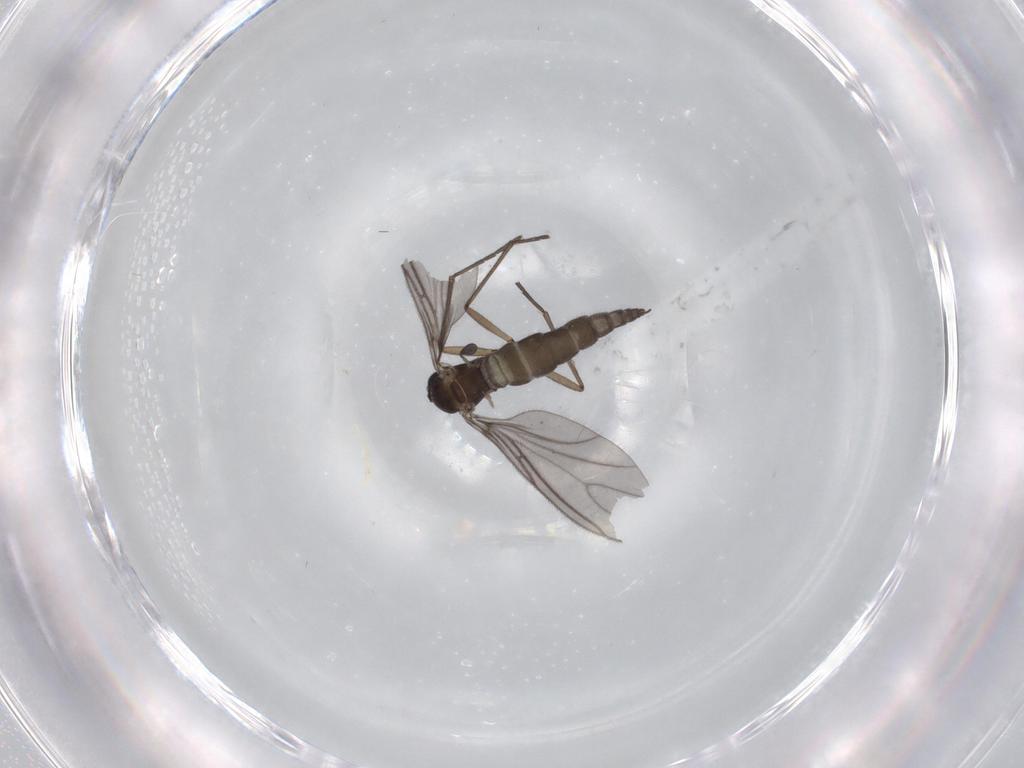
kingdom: Animalia
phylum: Arthropoda
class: Insecta
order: Diptera
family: Sciaridae
